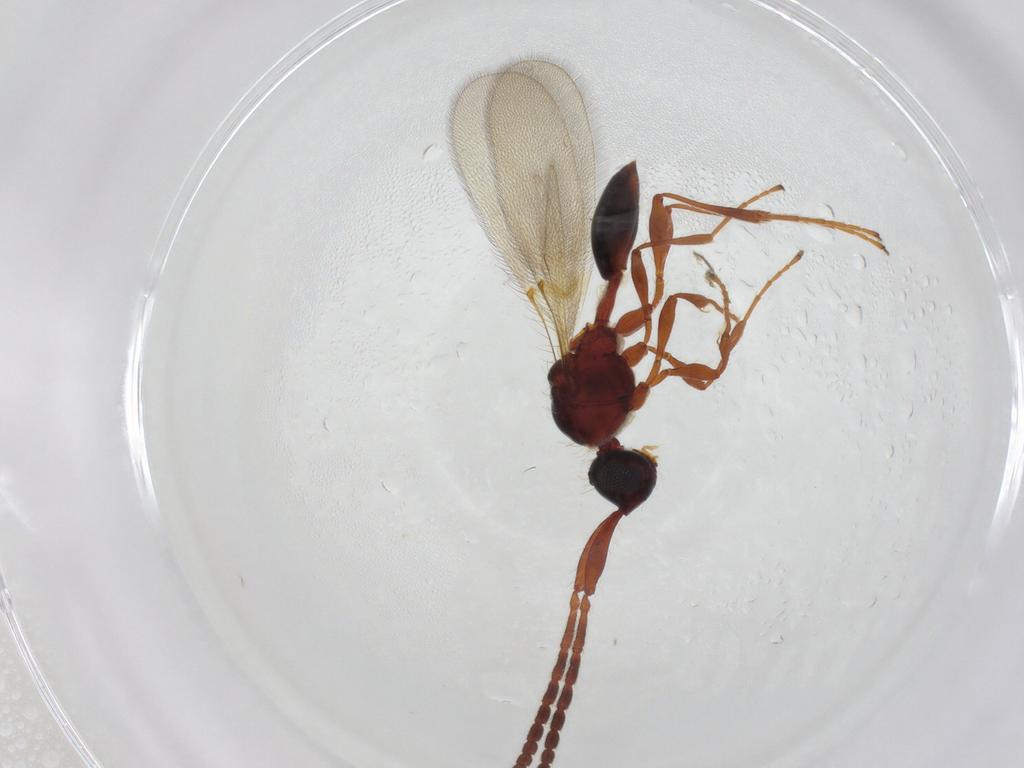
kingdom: Animalia
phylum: Arthropoda
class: Insecta
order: Hymenoptera
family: Diapriidae
